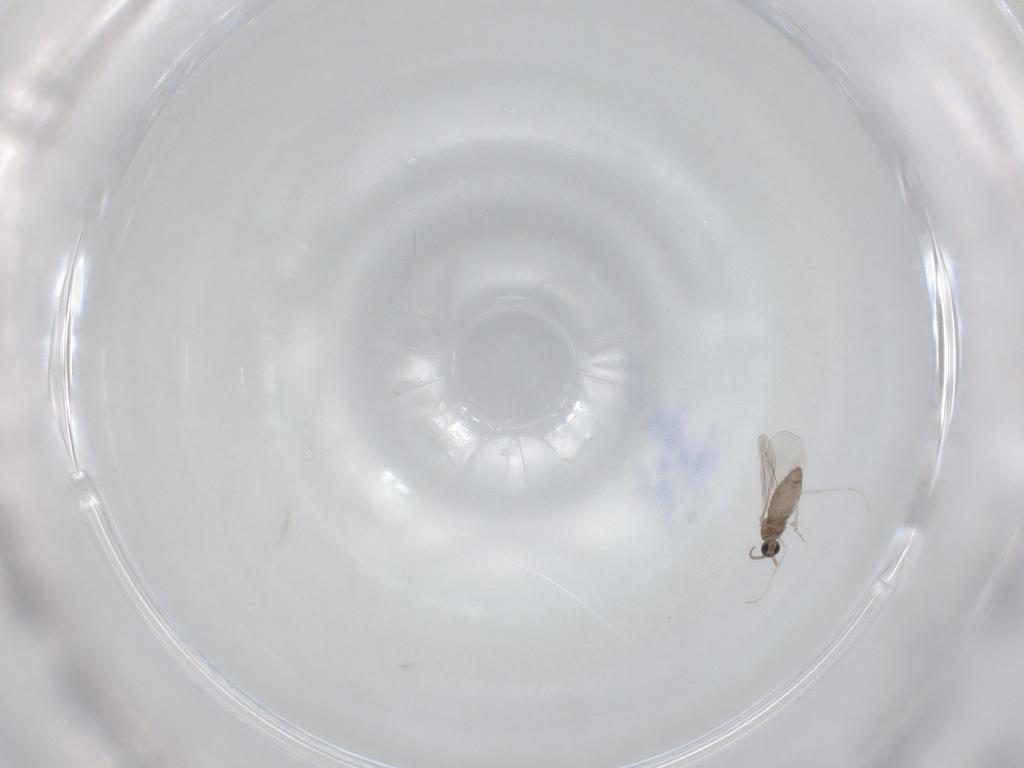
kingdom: Animalia
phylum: Arthropoda
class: Insecta
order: Diptera
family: Cecidomyiidae
